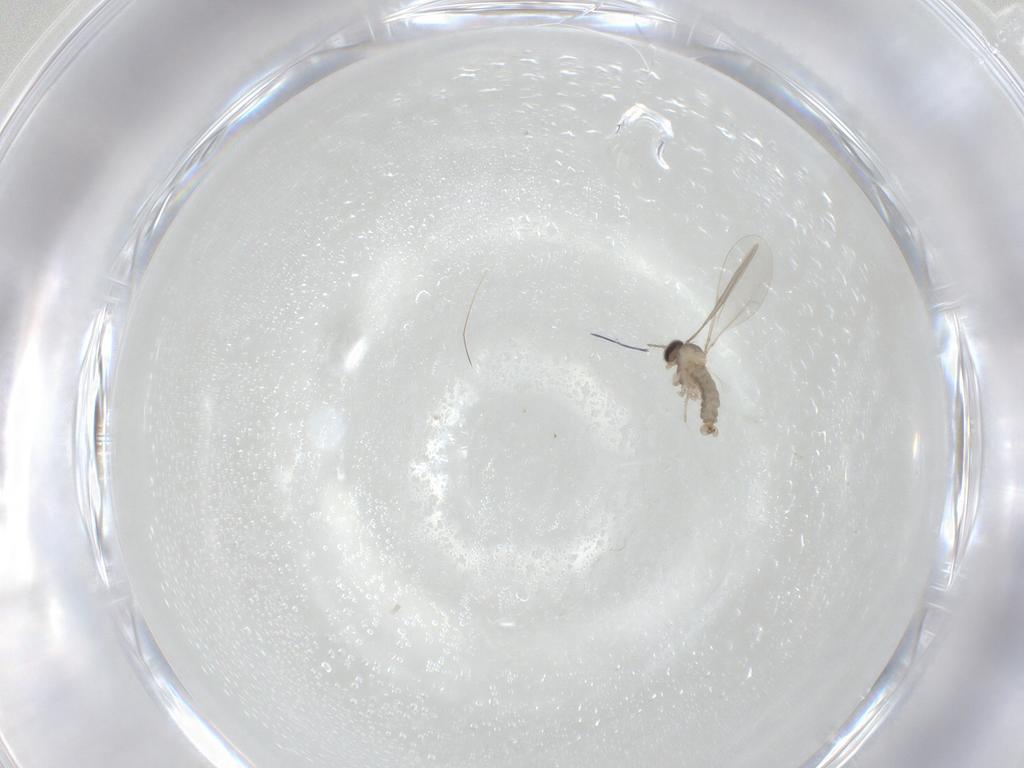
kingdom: Animalia
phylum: Arthropoda
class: Insecta
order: Diptera
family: Cecidomyiidae
